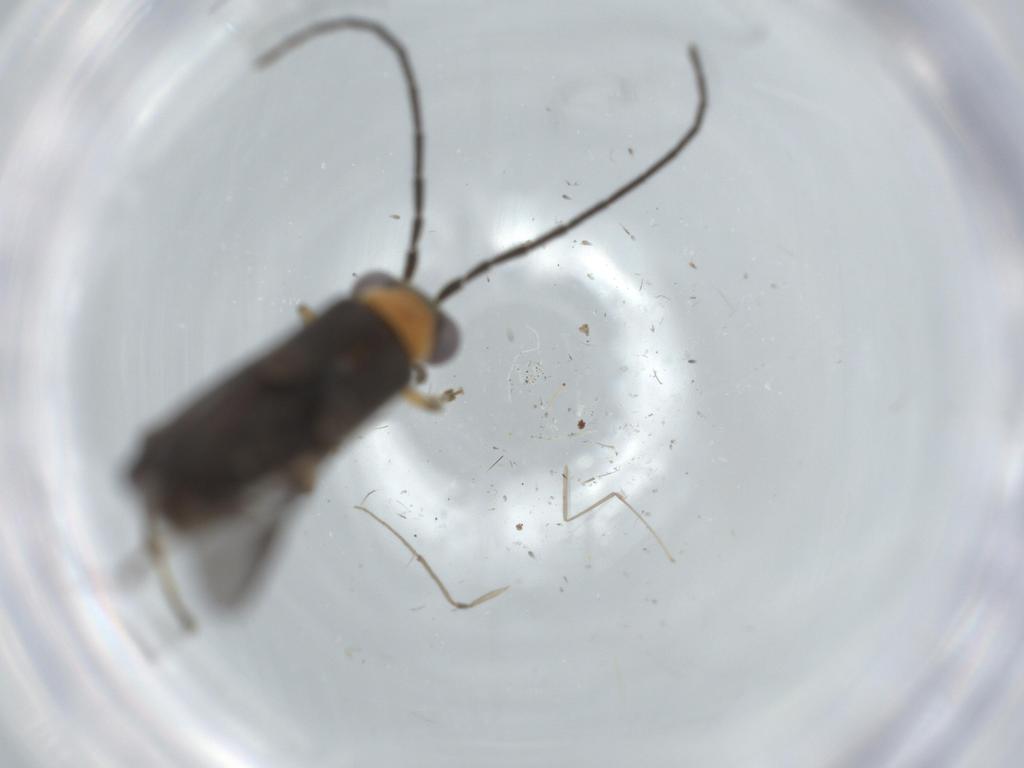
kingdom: Animalia
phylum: Arthropoda
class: Insecta
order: Coleoptera
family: Cantharidae
